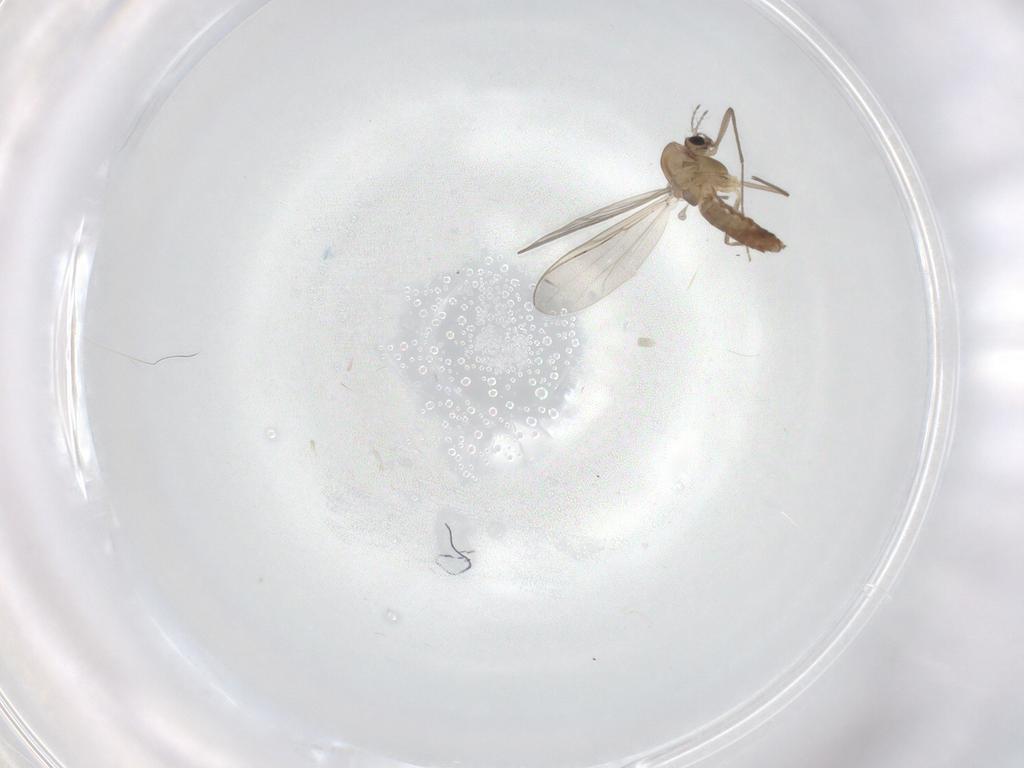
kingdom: Animalia
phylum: Arthropoda
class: Insecta
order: Diptera
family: Chironomidae
